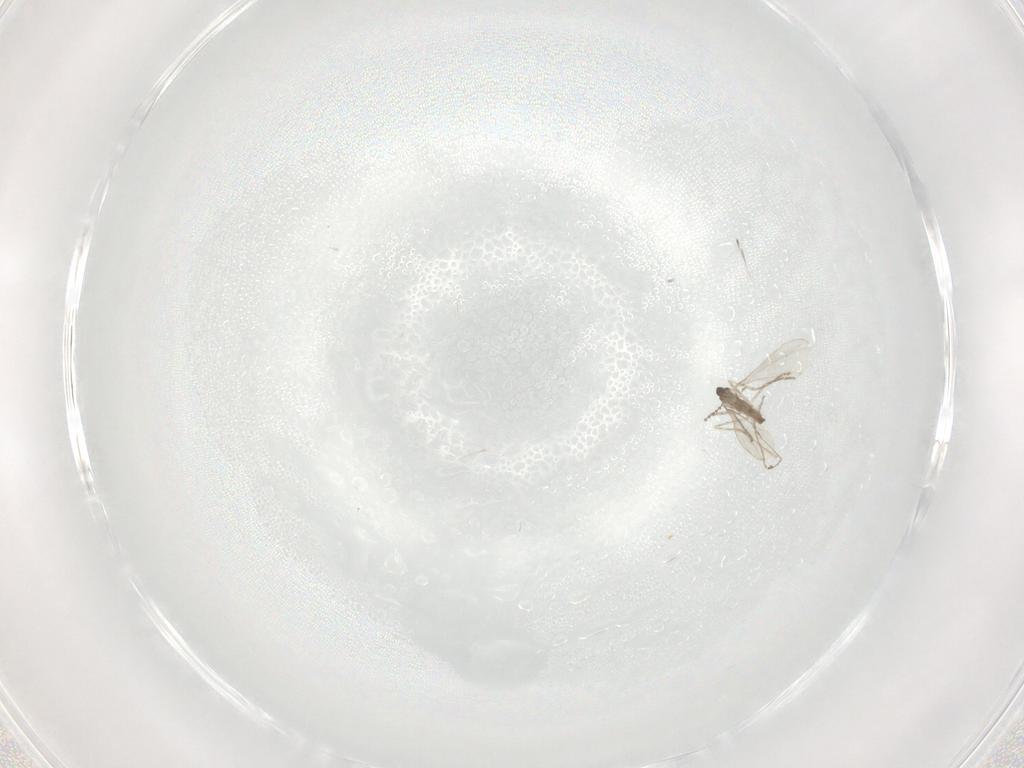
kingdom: Animalia
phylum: Arthropoda
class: Insecta
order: Diptera
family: Cecidomyiidae
